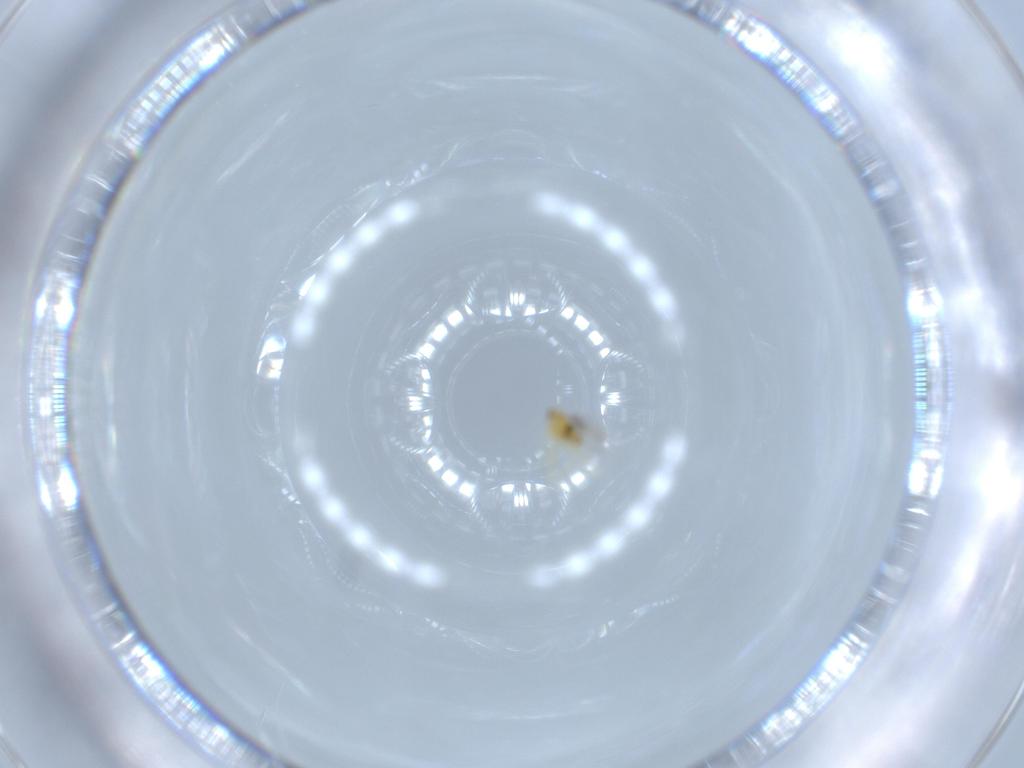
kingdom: Animalia
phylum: Arthropoda
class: Insecta
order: Hymenoptera
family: Aphelinidae
